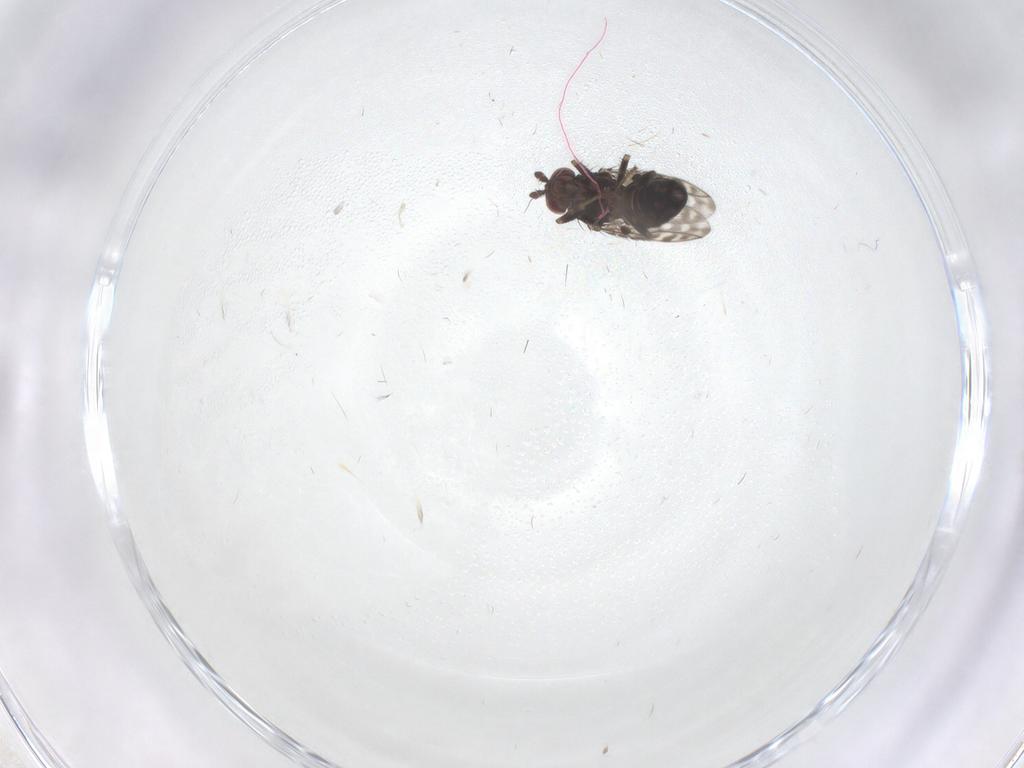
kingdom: Animalia
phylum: Arthropoda
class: Insecta
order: Diptera
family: Sphaeroceridae
